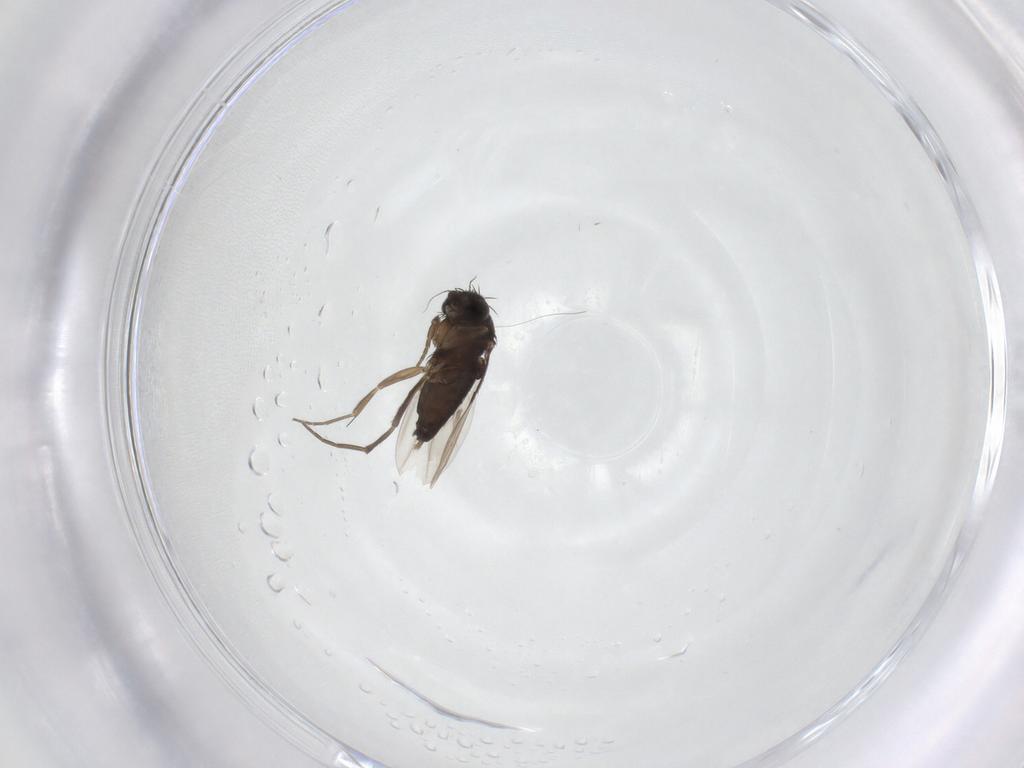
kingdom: Animalia
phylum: Arthropoda
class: Insecta
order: Diptera
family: Phoridae
